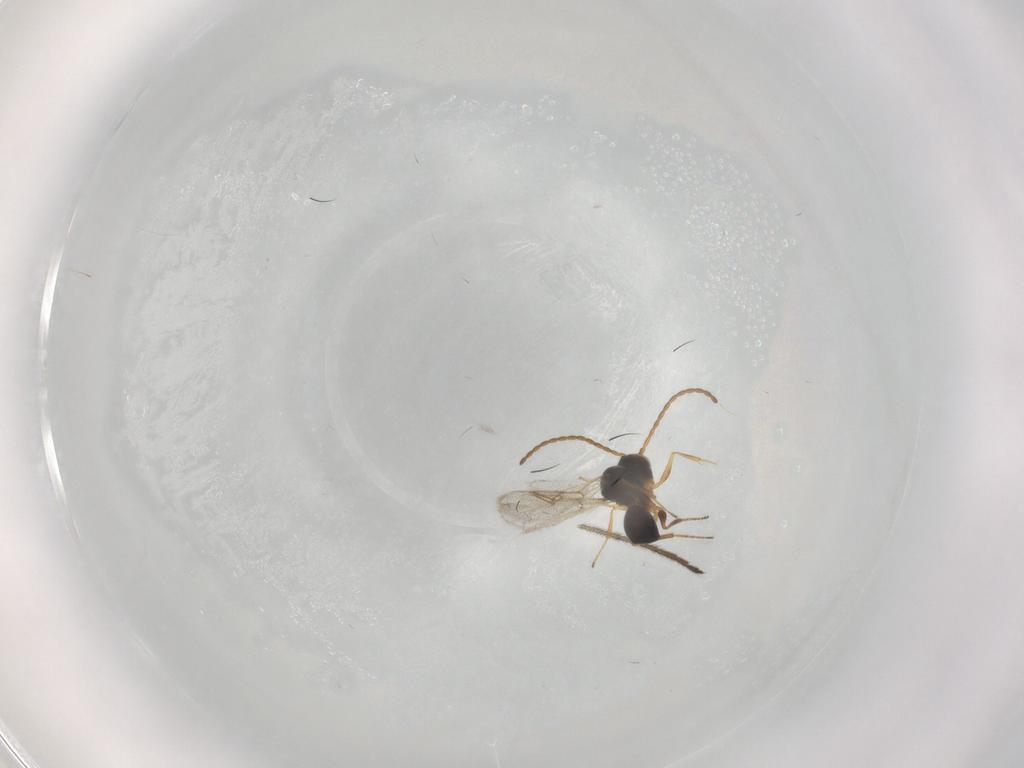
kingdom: Animalia
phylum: Arthropoda
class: Insecta
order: Hymenoptera
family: Figitidae
